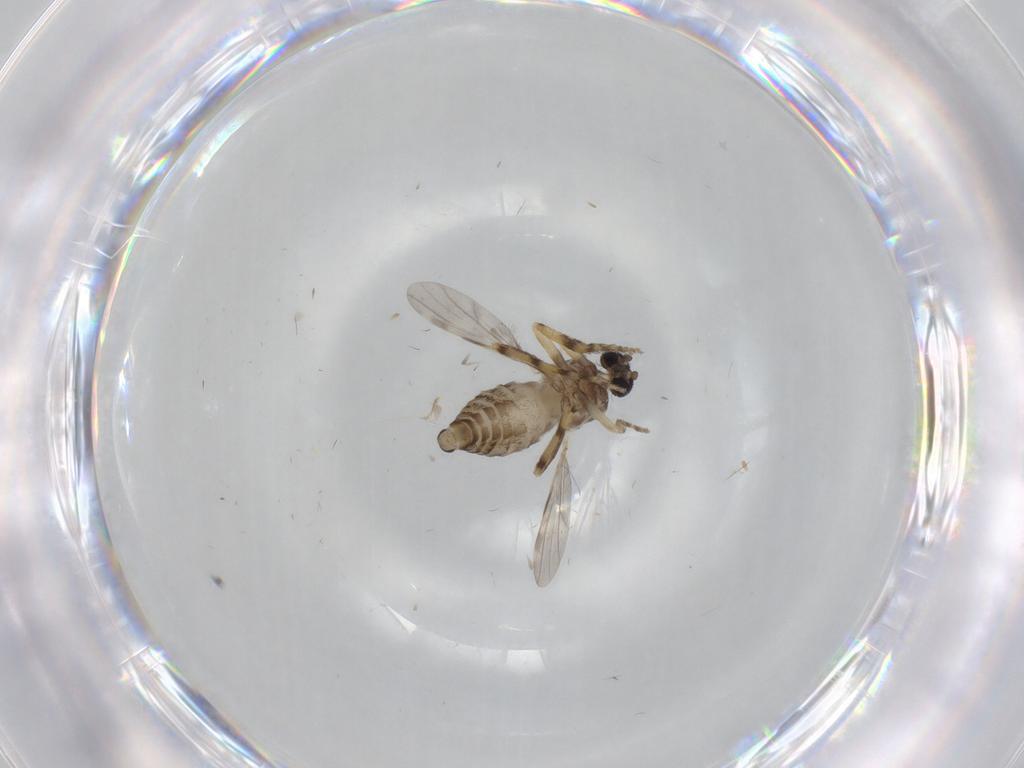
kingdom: Animalia
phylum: Arthropoda
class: Insecta
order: Diptera
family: Ceratopogonidae
